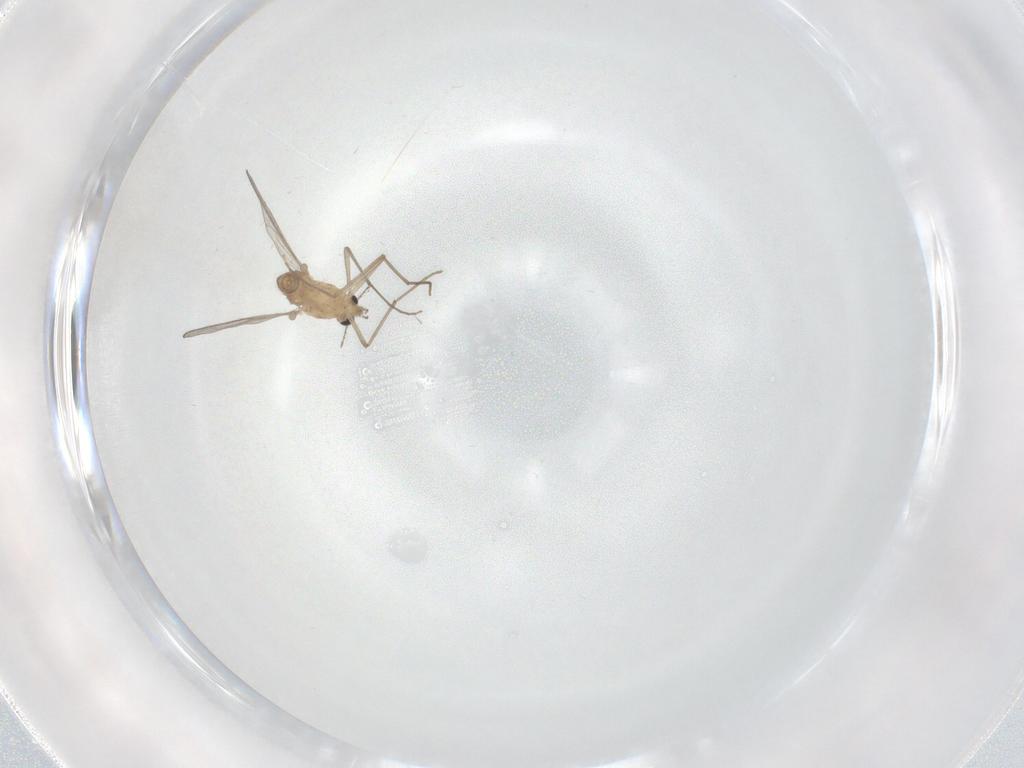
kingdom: Animalia
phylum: Arthropoda
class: Insecta
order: Diptera
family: Chironomidae
